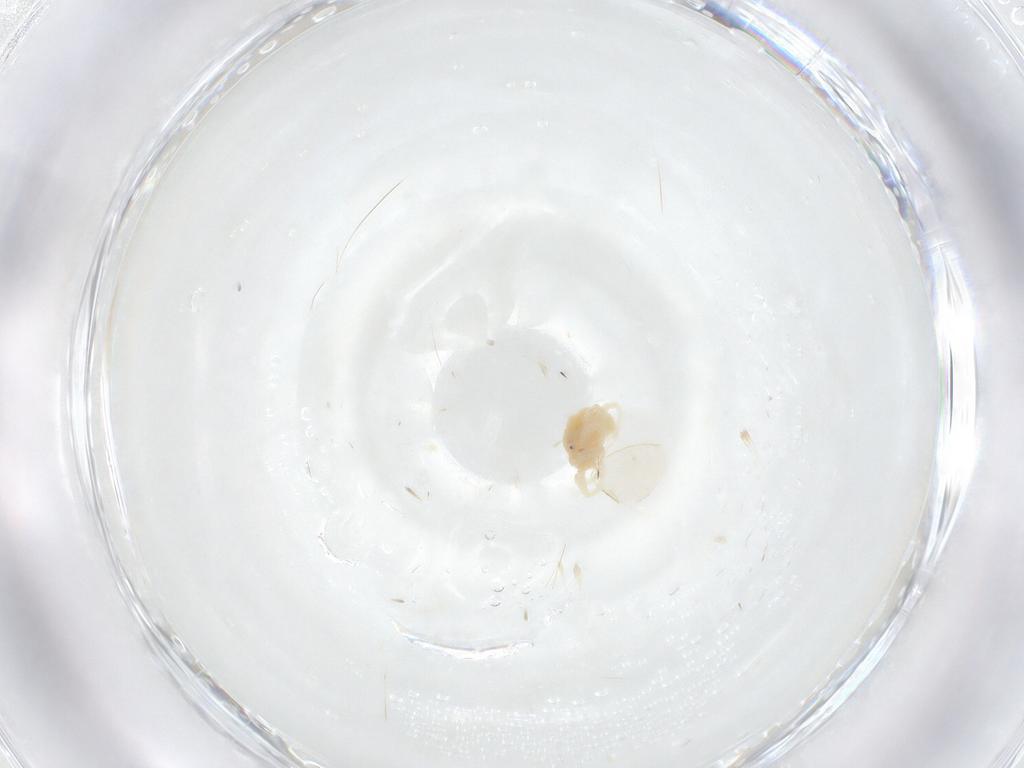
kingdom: Animalia
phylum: Arthropoda
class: Arachnida
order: Trombidiformes
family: Anystidae
